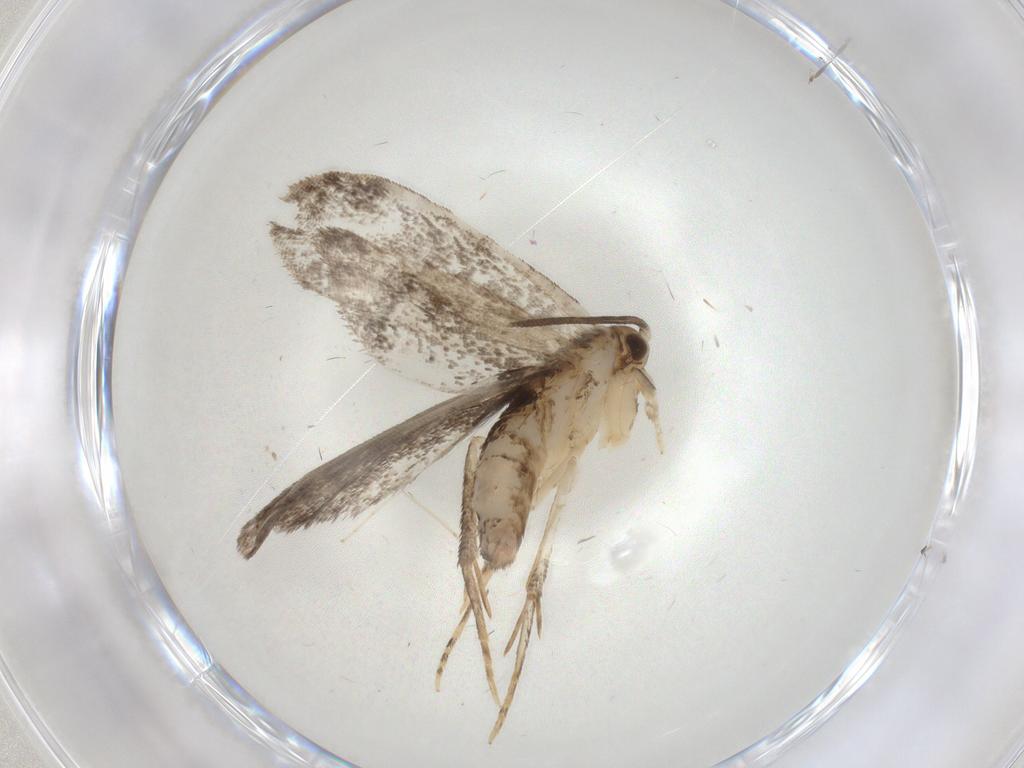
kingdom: Animalia
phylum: Arthropoda
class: Insecta
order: Lepidoptera
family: Dryadaulidae
